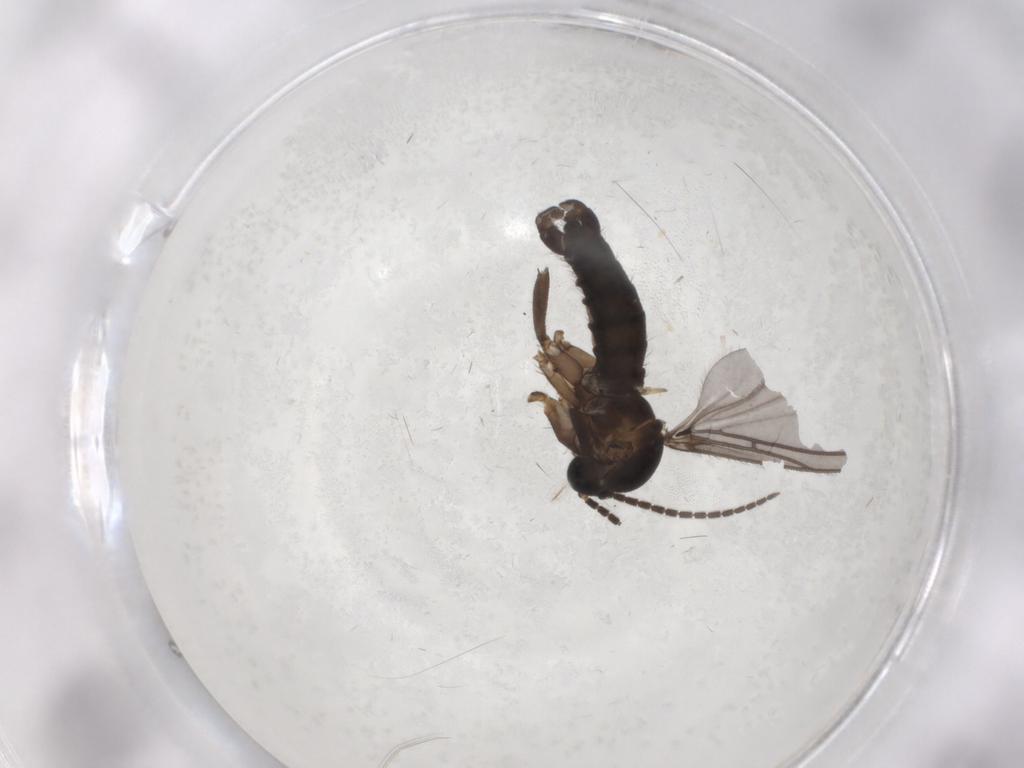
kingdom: Animalia
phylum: Arthropoda
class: Insecta
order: Diptera
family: Sciaridae
